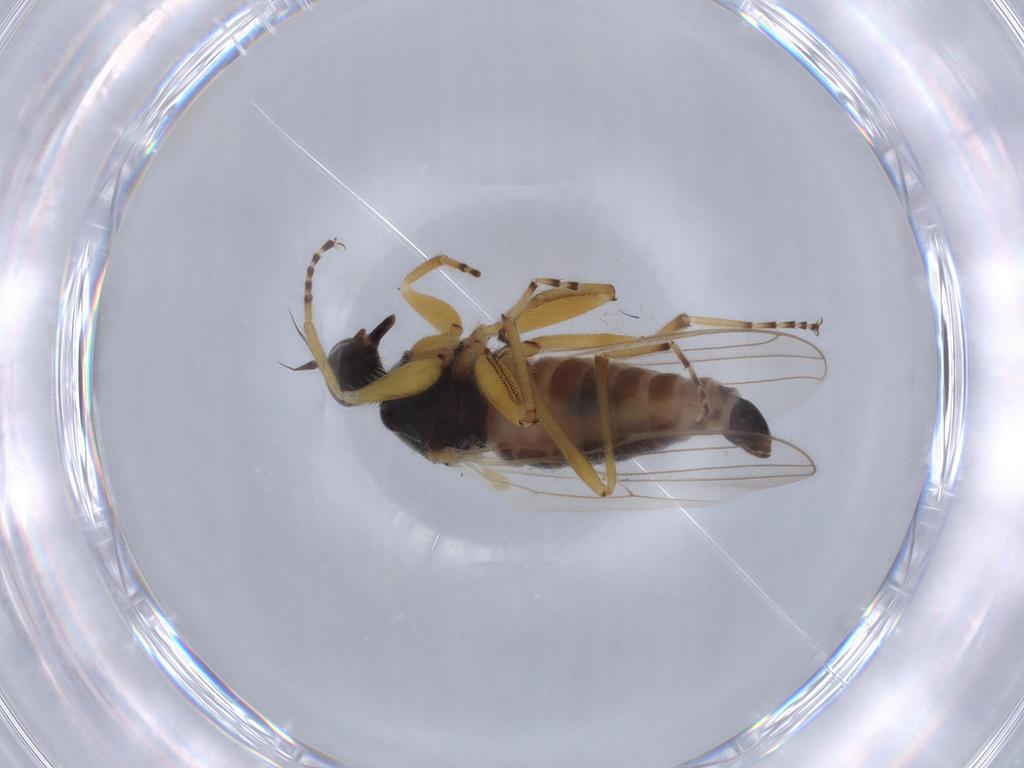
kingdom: Animalia
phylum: Arthropoda
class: Insecta
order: Diptera
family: Hybotidae
